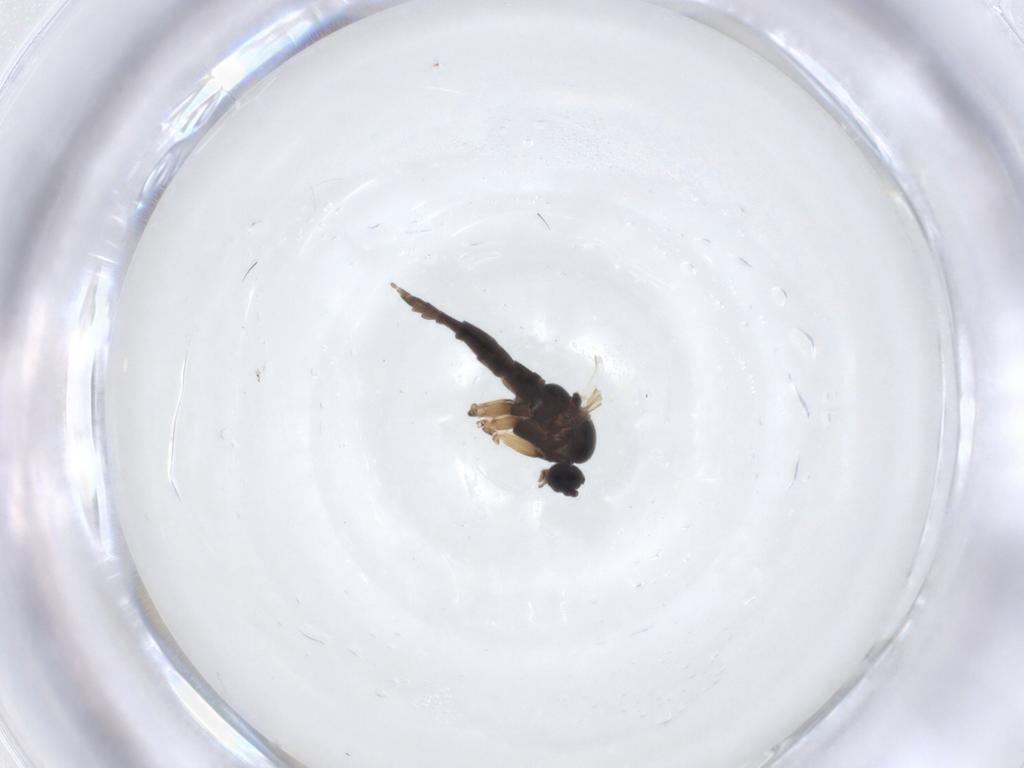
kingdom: Animalia
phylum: Arthropoda
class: Insecta
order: Diptera
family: Sciaridae
